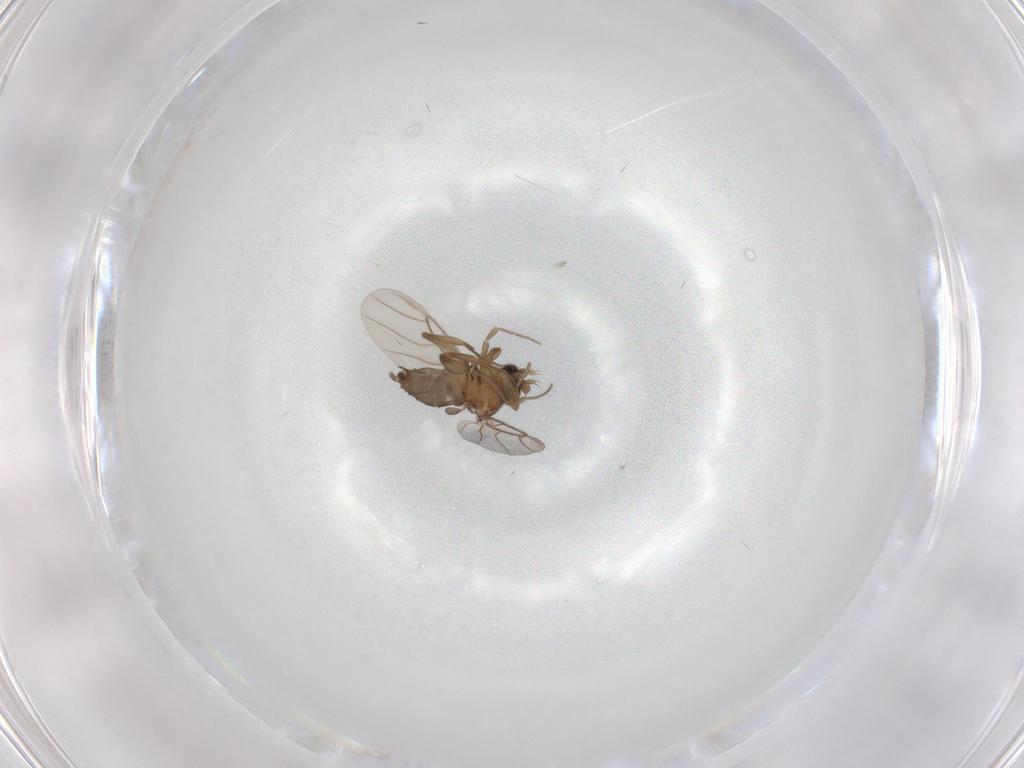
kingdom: Animalia
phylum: Arthropoda
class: Insecta
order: Diptera
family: Phoridae
